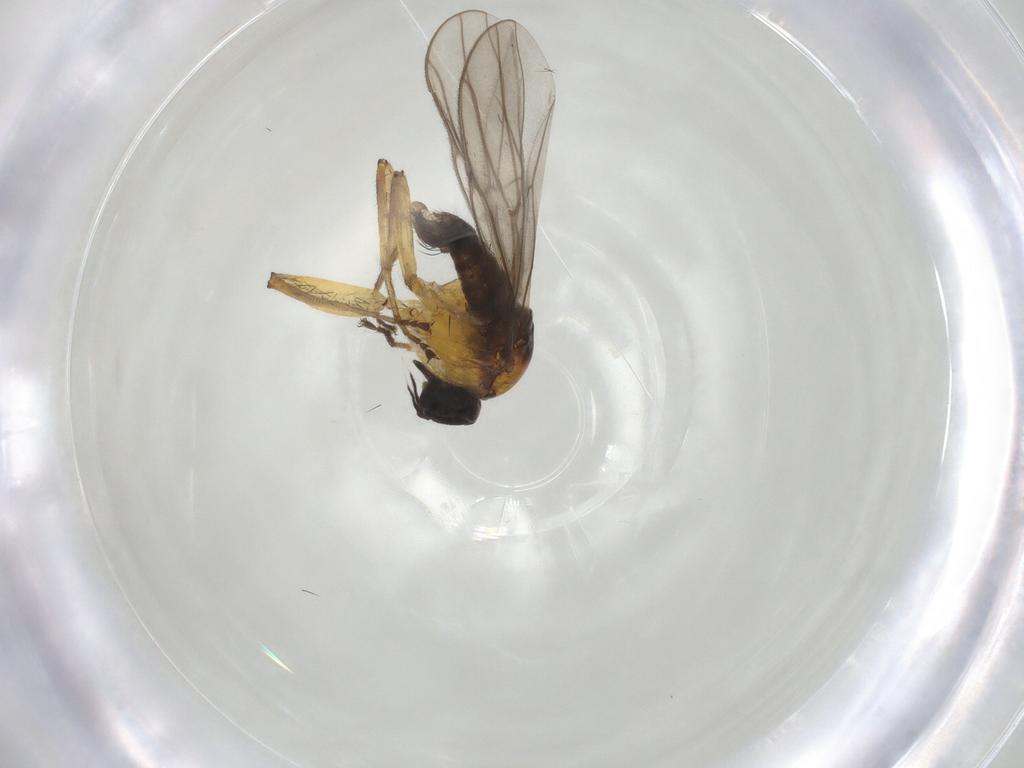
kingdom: Animalia
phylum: Arthropoda
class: Insecta
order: Diptera
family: Hybotidae
